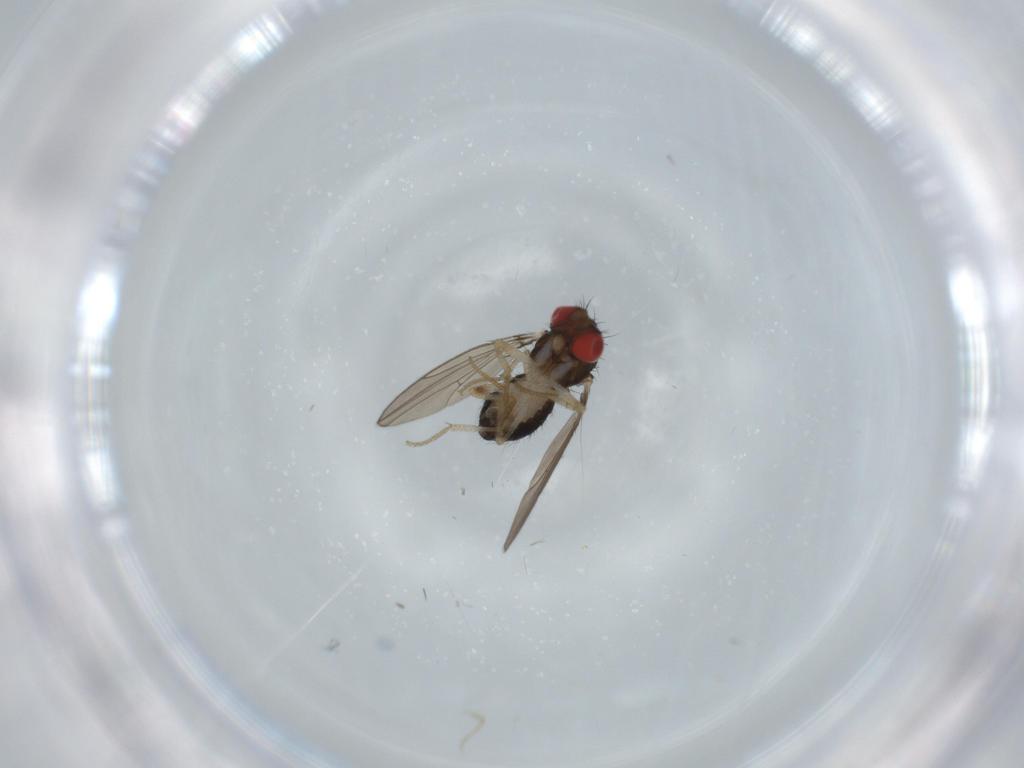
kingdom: Animalia
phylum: Arthropoda
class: Insecta
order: Diptera
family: Drosophilidae
